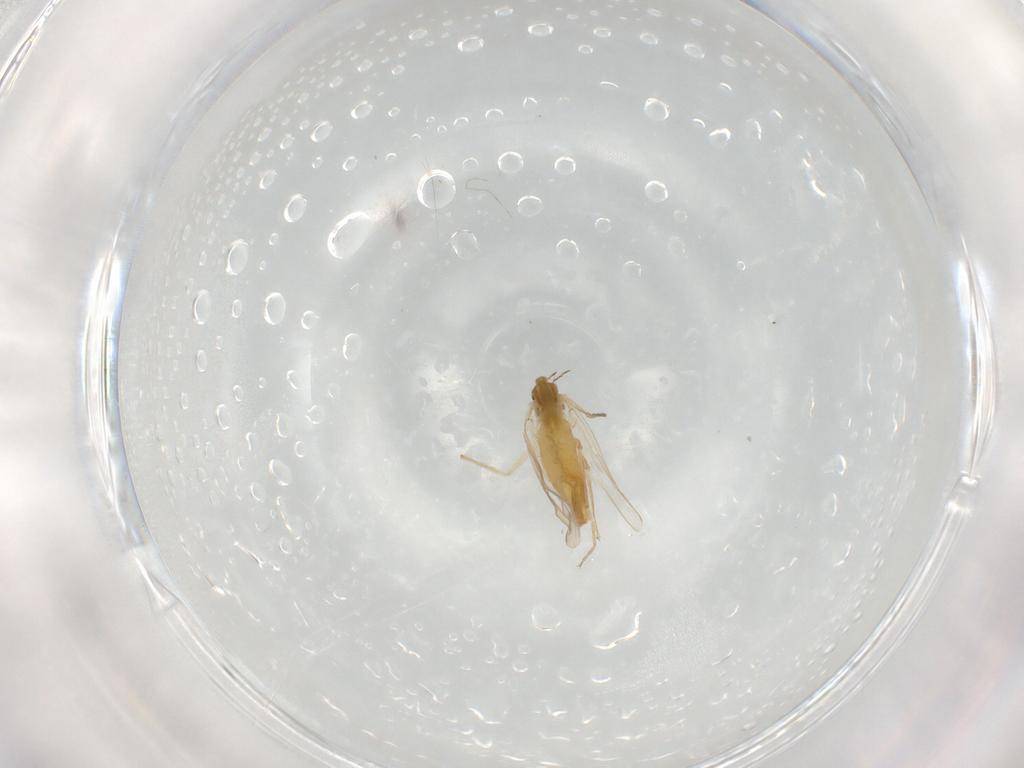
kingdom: Animalia
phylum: Arthropoda
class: Insecta
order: Diptera
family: Chironomidae
